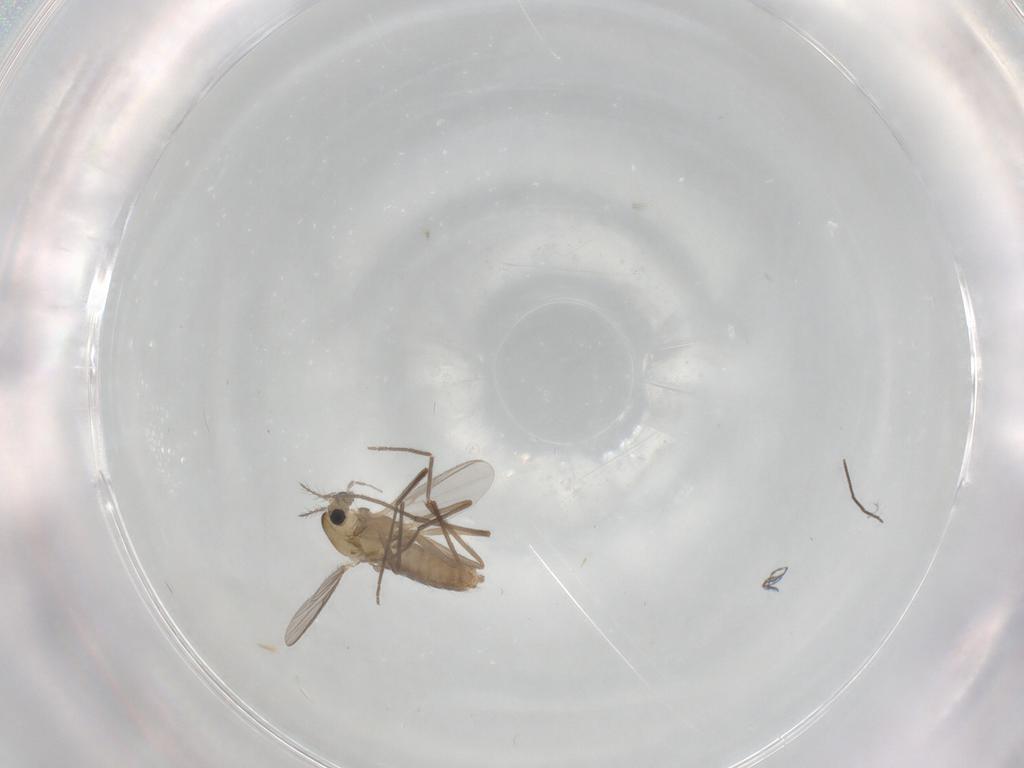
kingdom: Animalia
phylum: Arthropoda
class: Insecta
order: Diptera
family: Chironomidae
